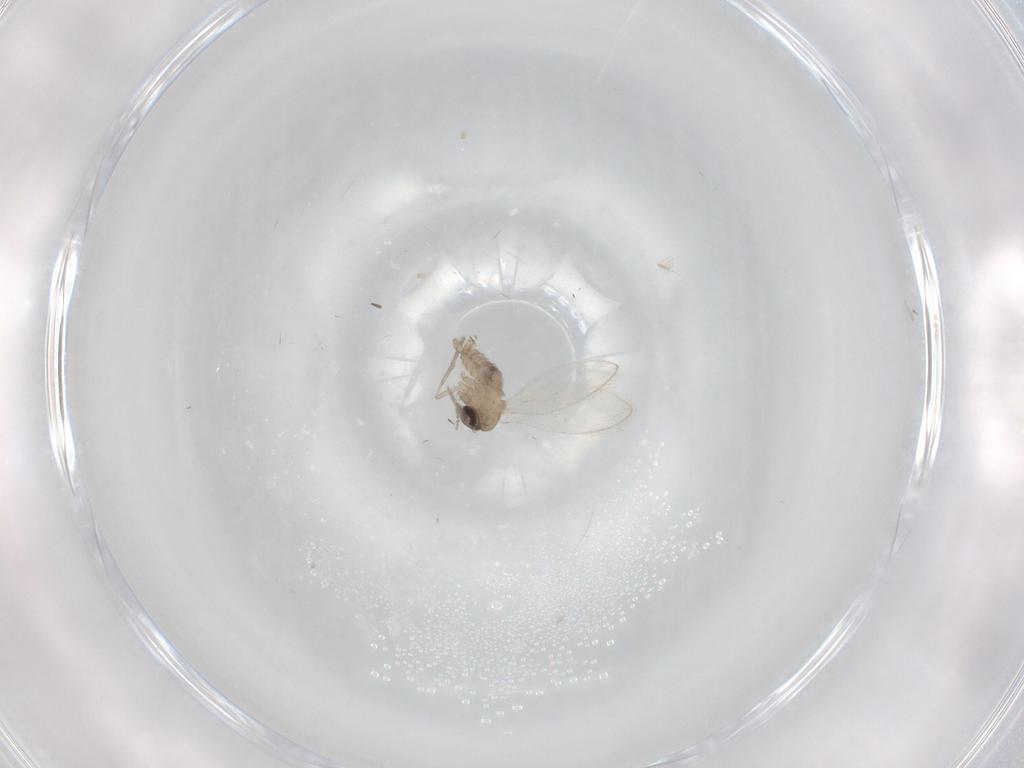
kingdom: Animalia
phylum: Arthropoda
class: Insecta
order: Diptera
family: Psychodidae
